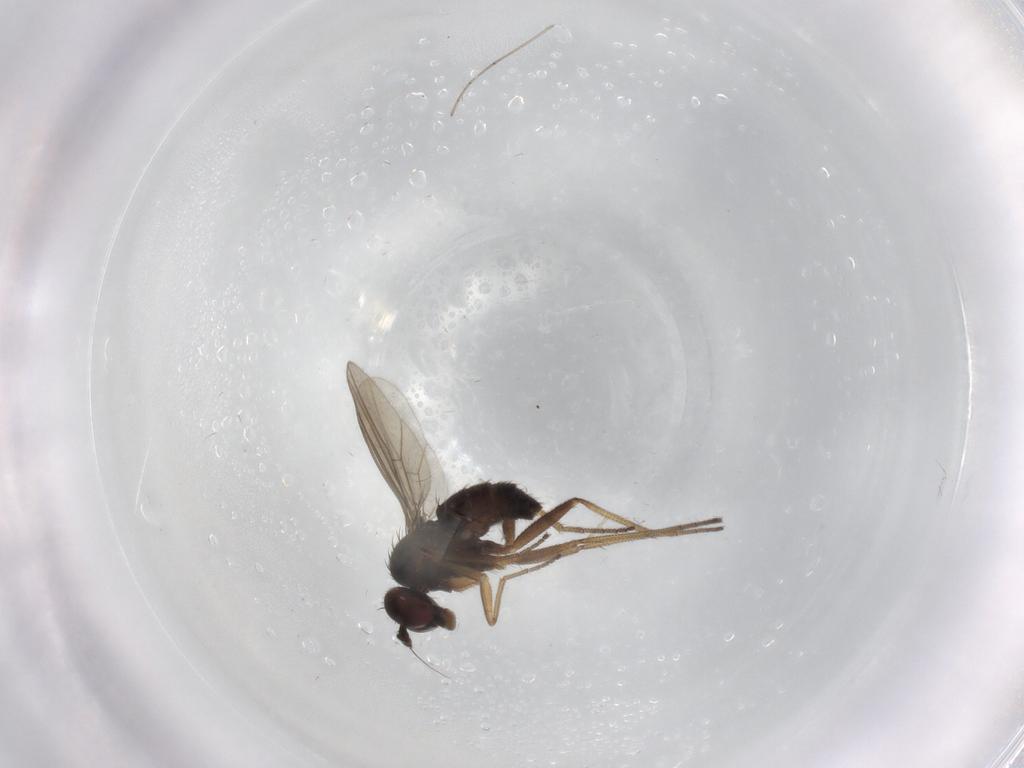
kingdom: Animalia
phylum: Arthropoda
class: Insecta
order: Diptera
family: Dolichopodidae
